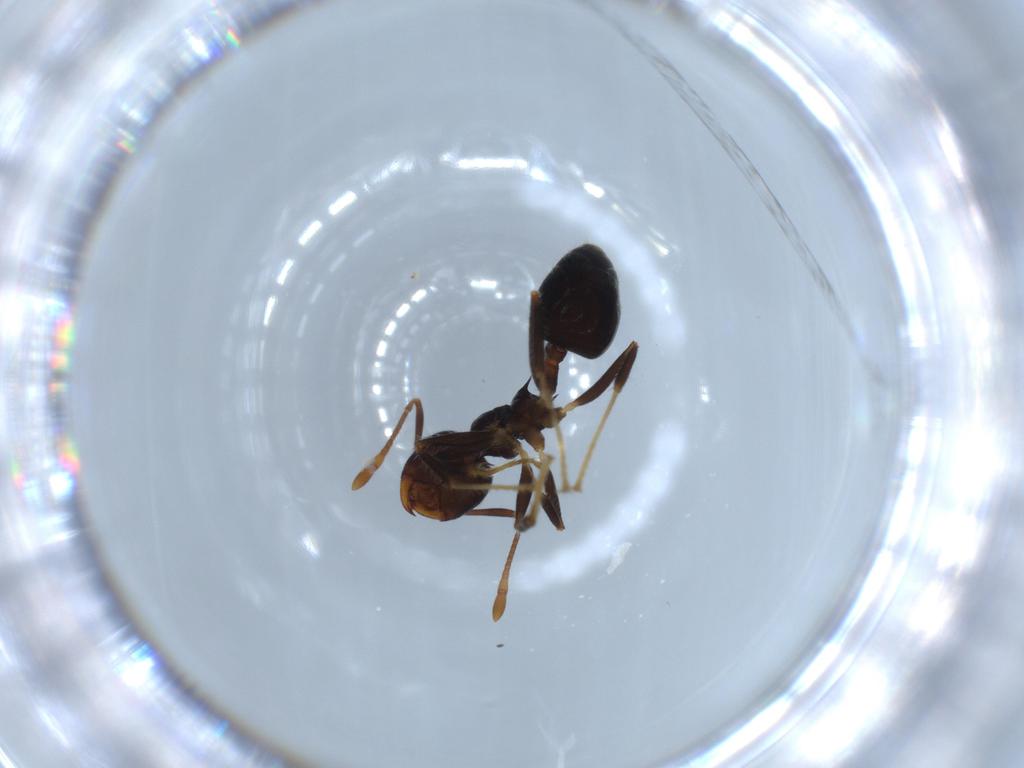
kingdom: Animalia
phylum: Arthropoda
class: Insecta
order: Hymenoptera
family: Formicidae
